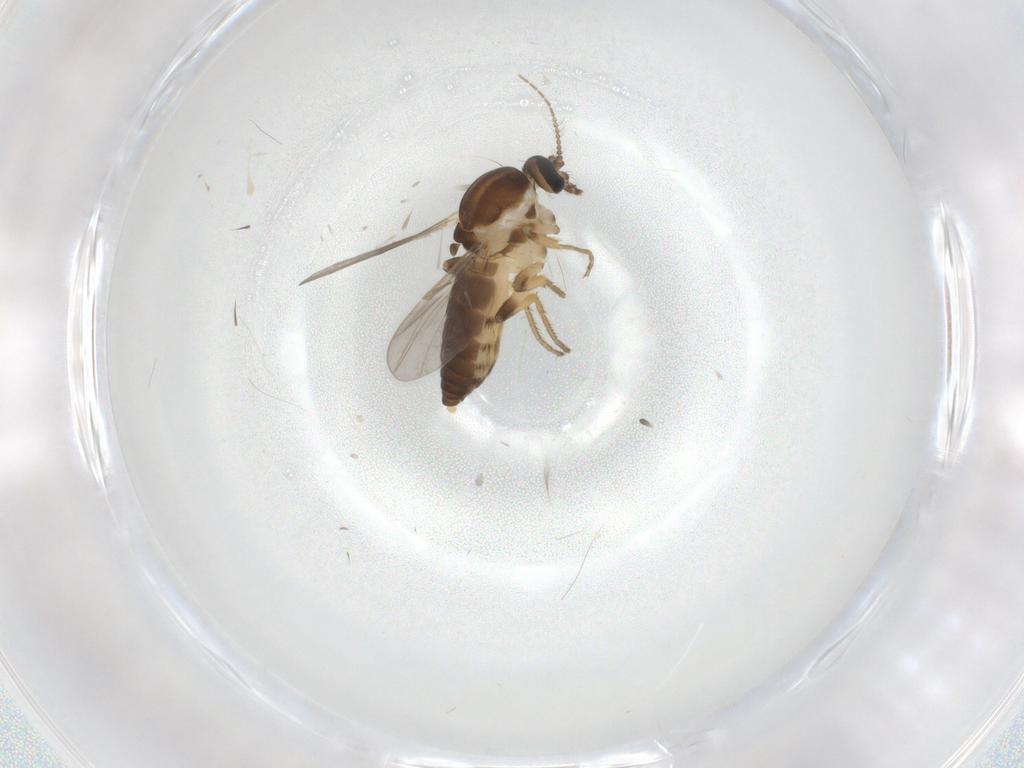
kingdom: Animalia
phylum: Arthropoda
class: Insecta
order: Diptera
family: Ceratopogonidae
